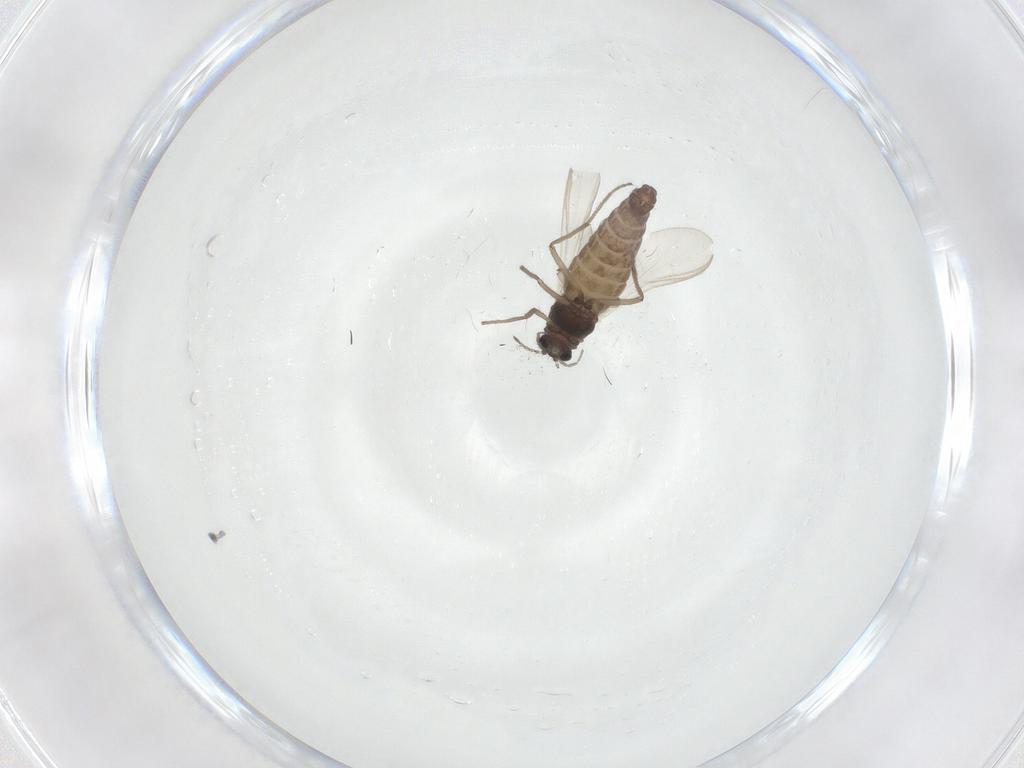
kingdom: Animalia
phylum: Arthropoda
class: Insecta
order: Diptera
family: Chironomidae
